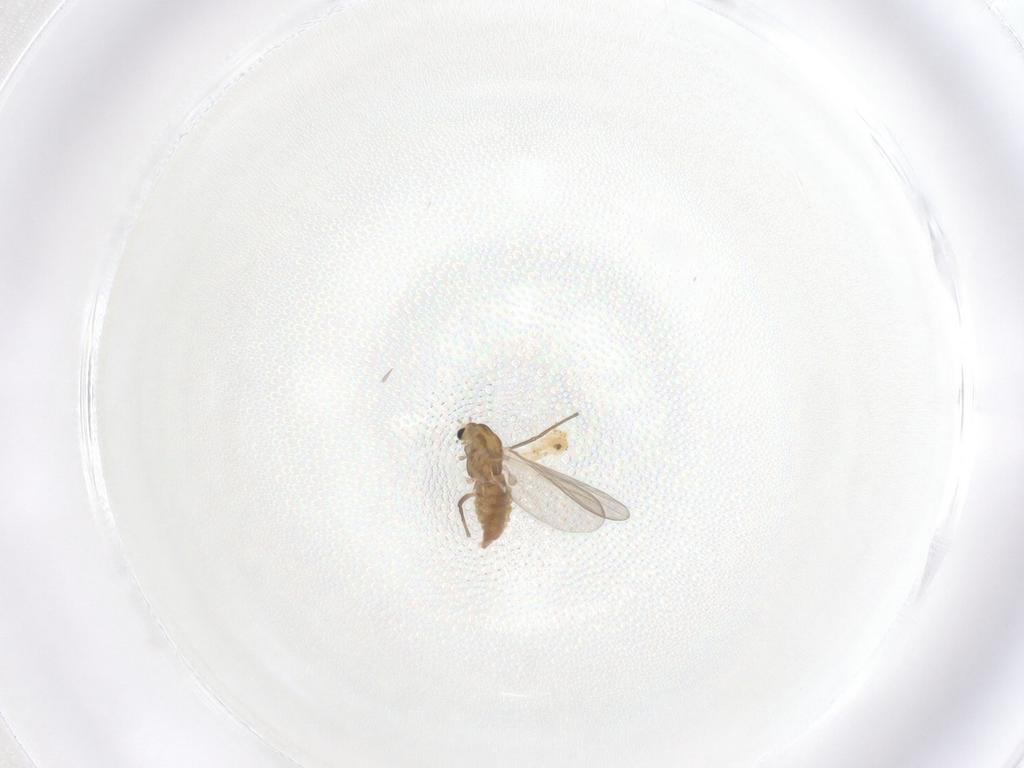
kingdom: Animalia
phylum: Arthropoda
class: Insecta
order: Diptera
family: Chironomidae
